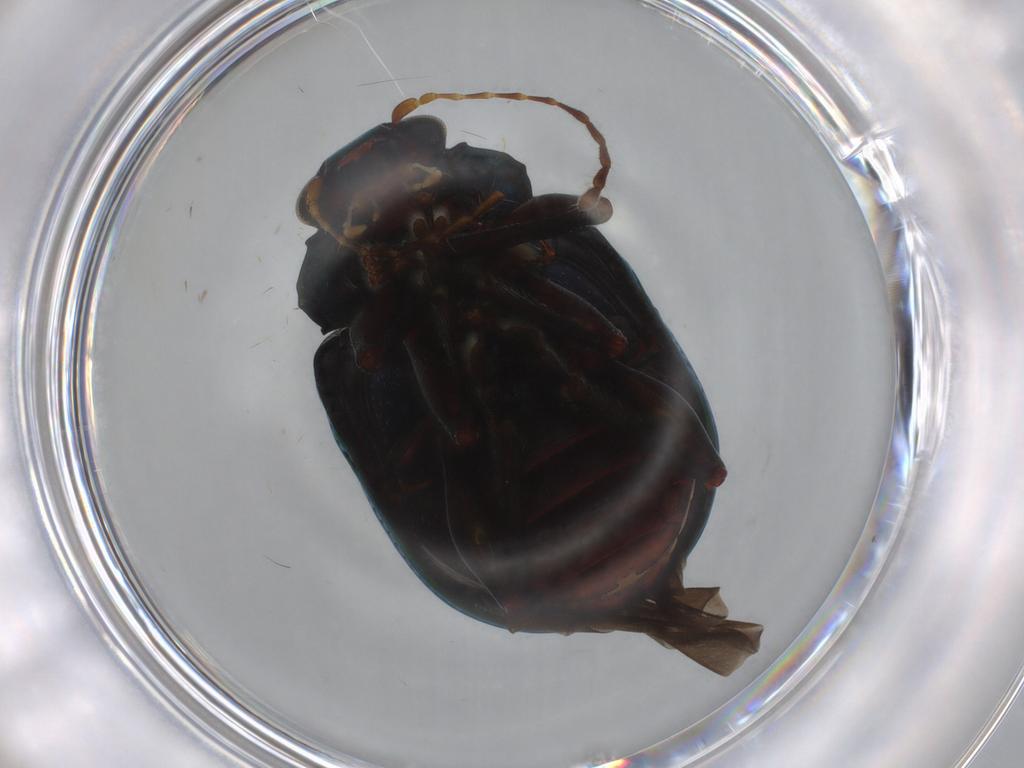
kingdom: Animalia
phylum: Arthropoda
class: Insecta
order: Coleoptera
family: Chrysomelidae
